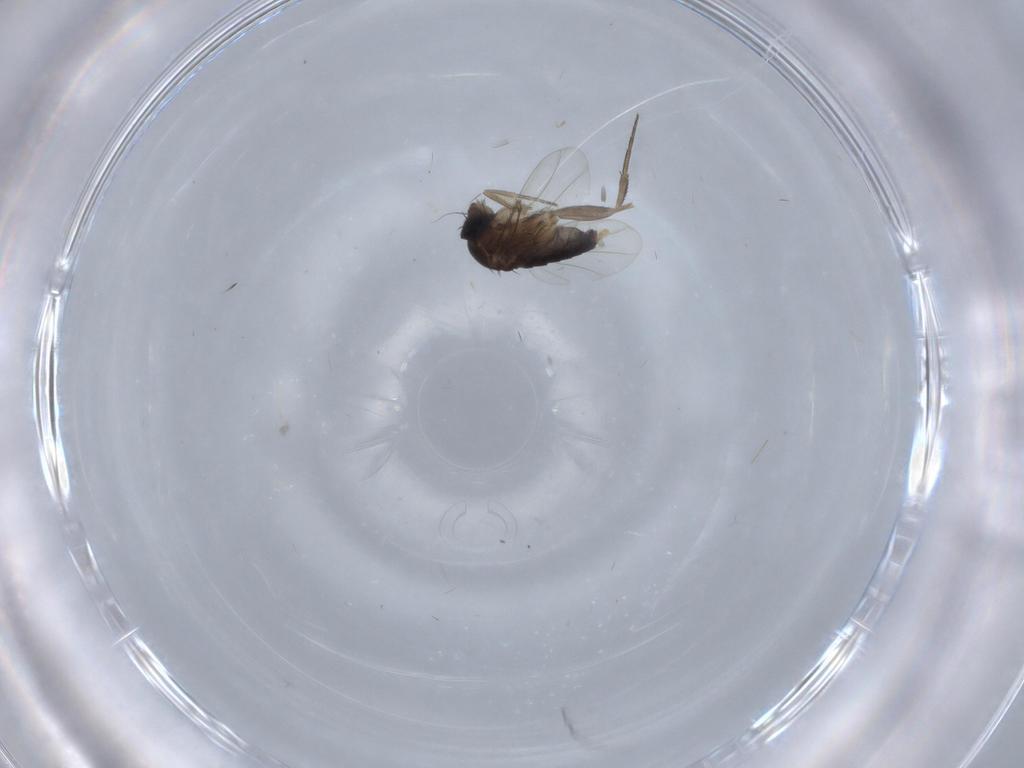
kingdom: Animalia
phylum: Arthropoda
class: Insecta
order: Diptera
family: Phoridae
